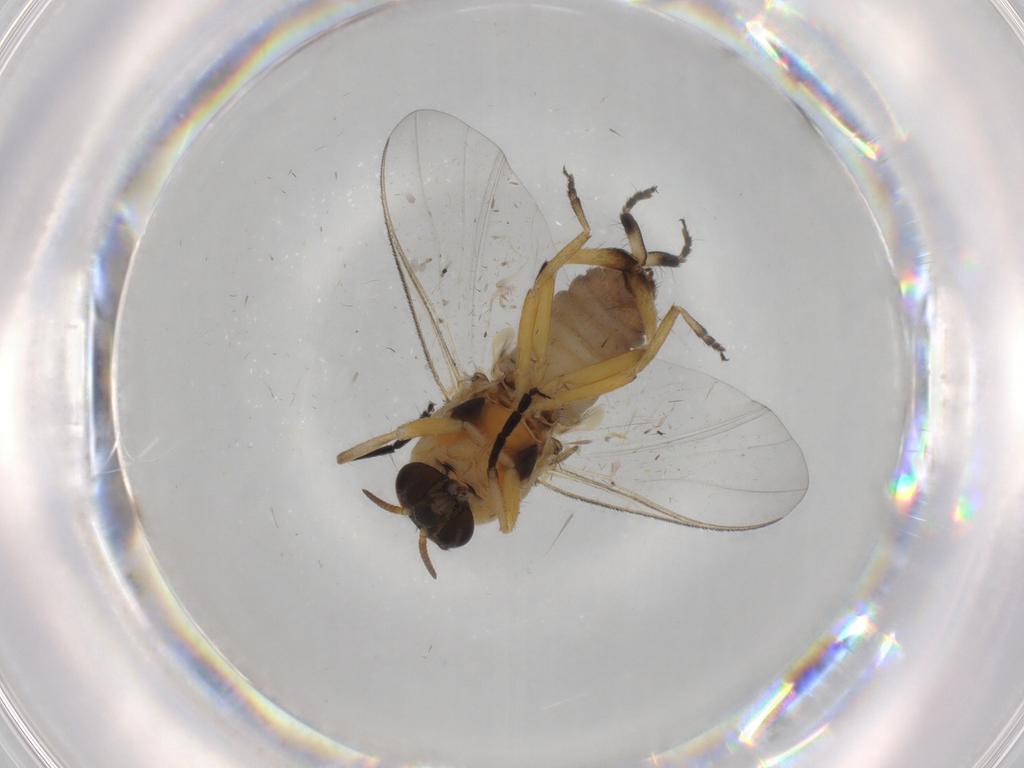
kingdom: Animalia
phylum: Arthropoda
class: Insecta
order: Diptera
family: Simuliidae
